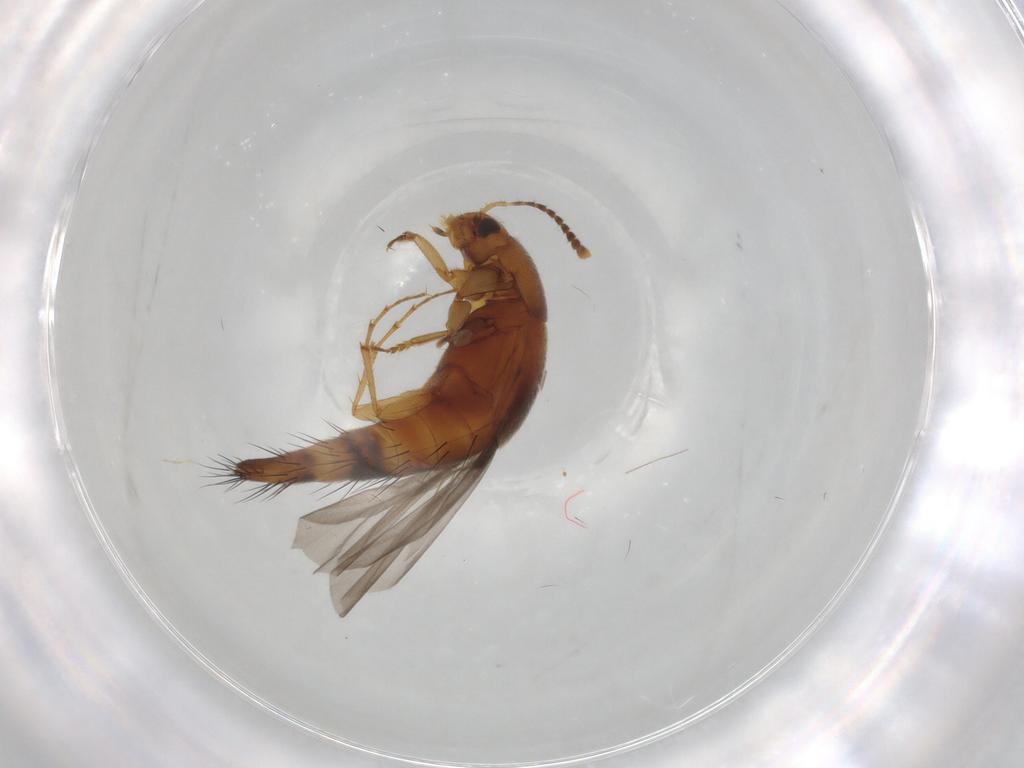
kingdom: Animalia
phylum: Arthropoda
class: Insecta
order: Coleoptera
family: Staphylinidae
